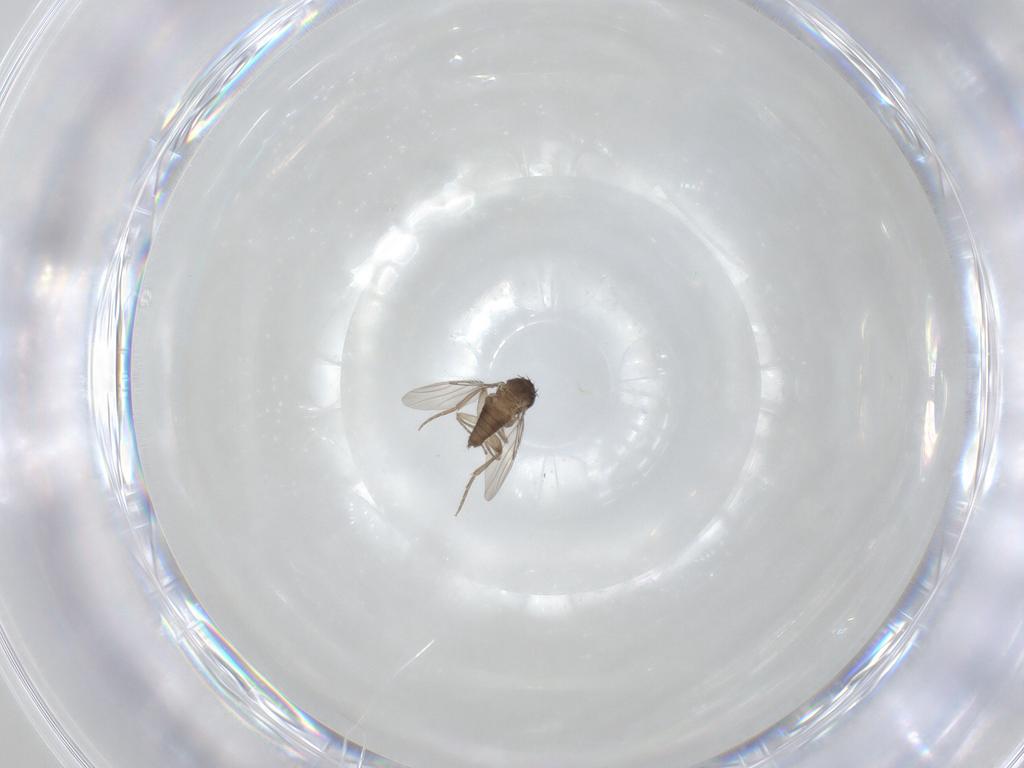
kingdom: Animalia
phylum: Arthropoda
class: Insecta
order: Diptera
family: Phoridae
